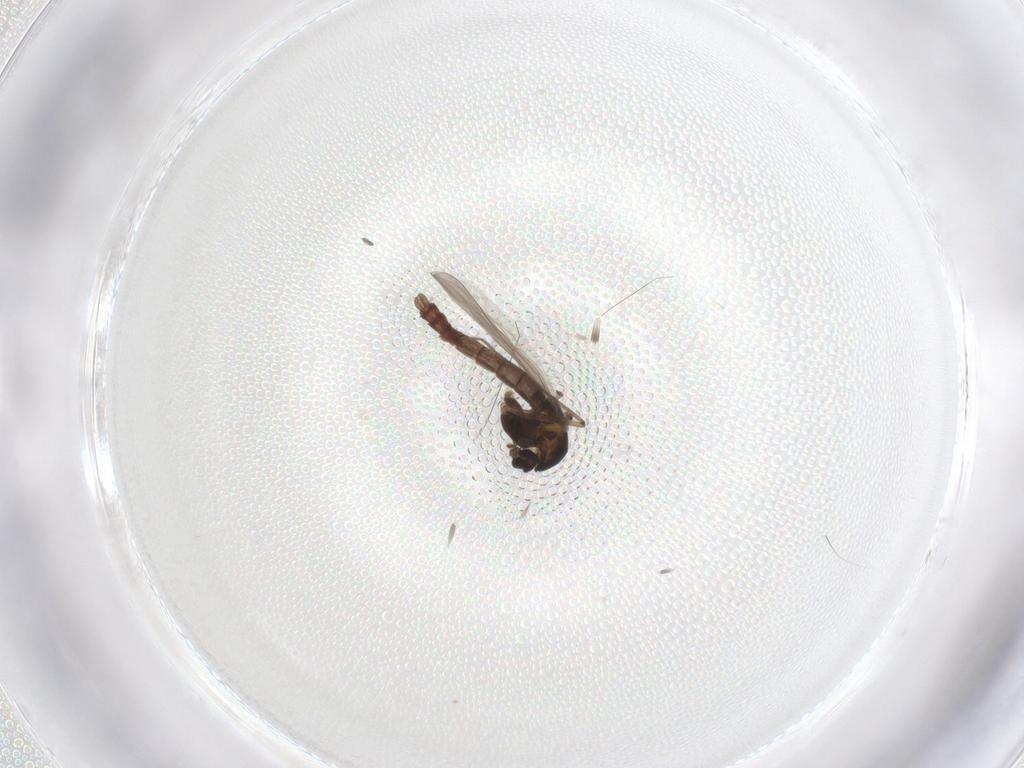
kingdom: Animalia
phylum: Arthropoda
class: Insecta
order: Diptera
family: Chironomidae
